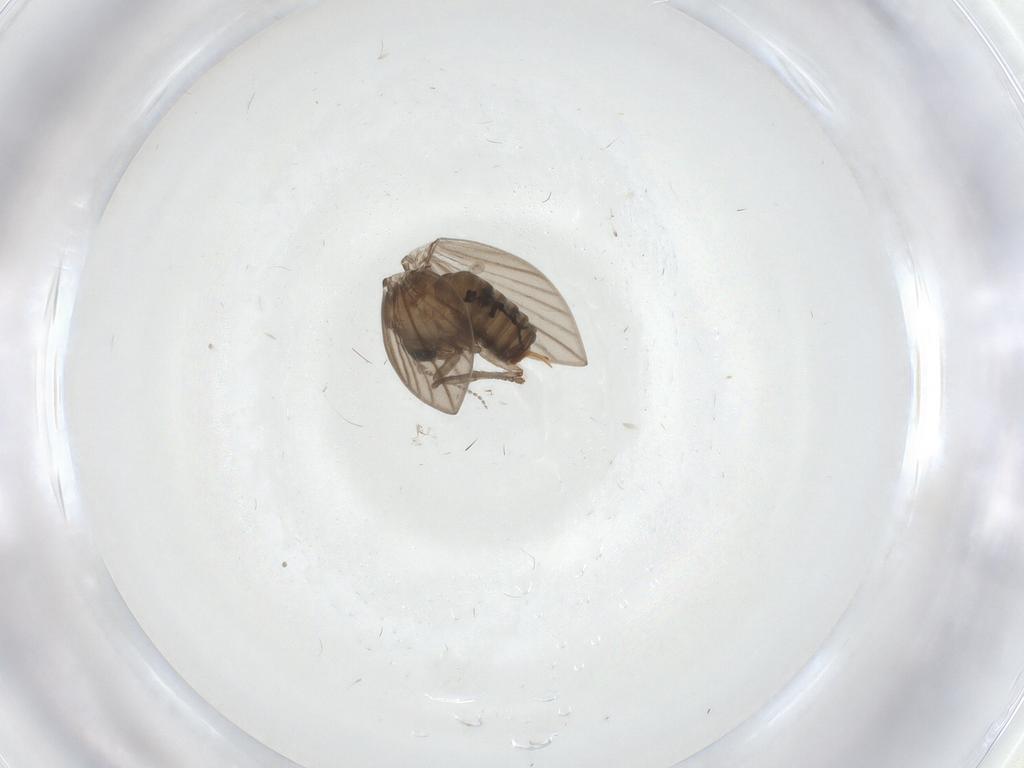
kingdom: Animalia
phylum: Arthropoda
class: Insecta
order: Diptera
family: Psychodidae
